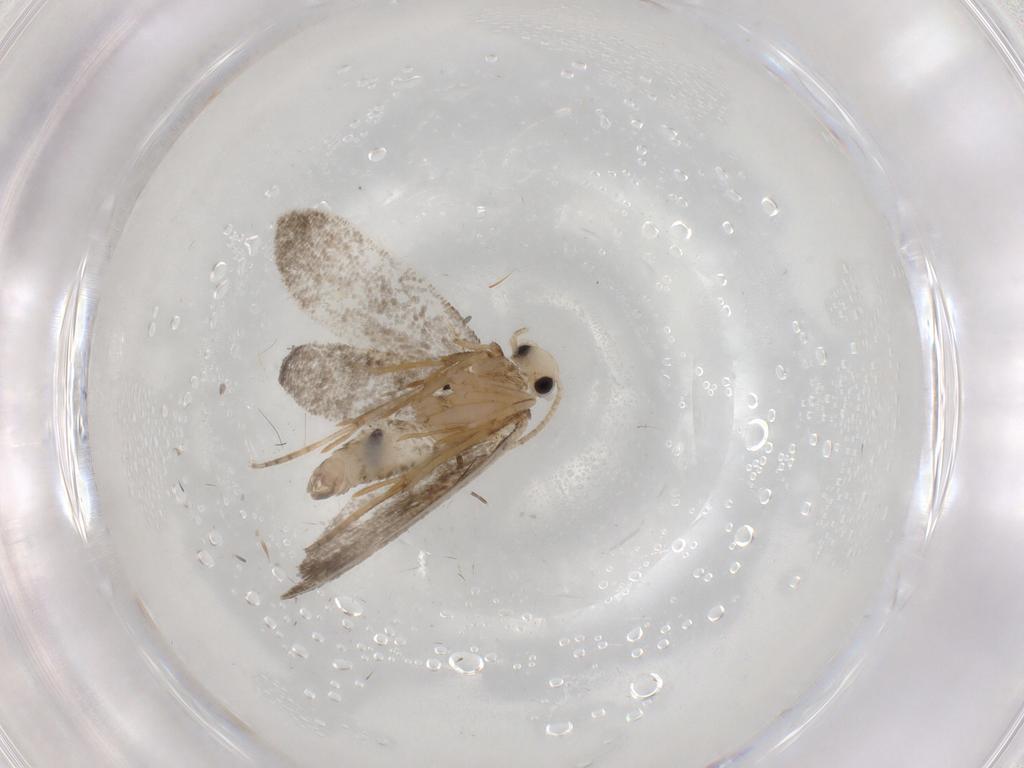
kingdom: Animalia
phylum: Arthropoda
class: Insecta
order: Lepidoptera
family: Psychidae
